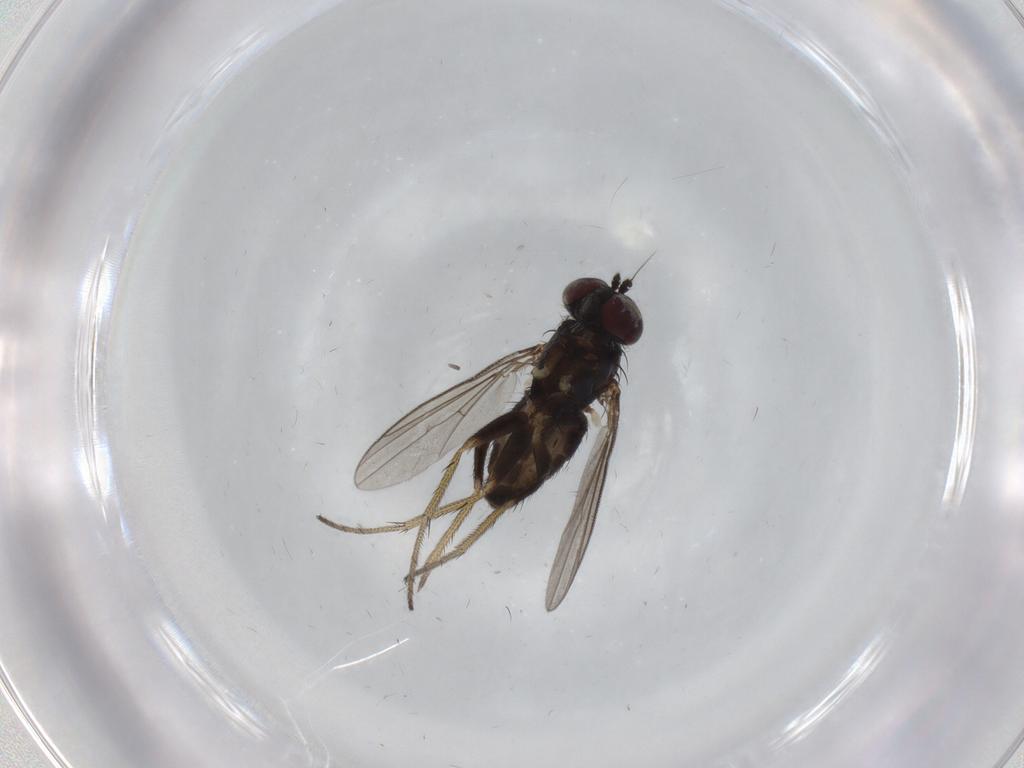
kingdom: Animalia
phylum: Arthropoda
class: Insecta
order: Diptera
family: Dolichopodidae
